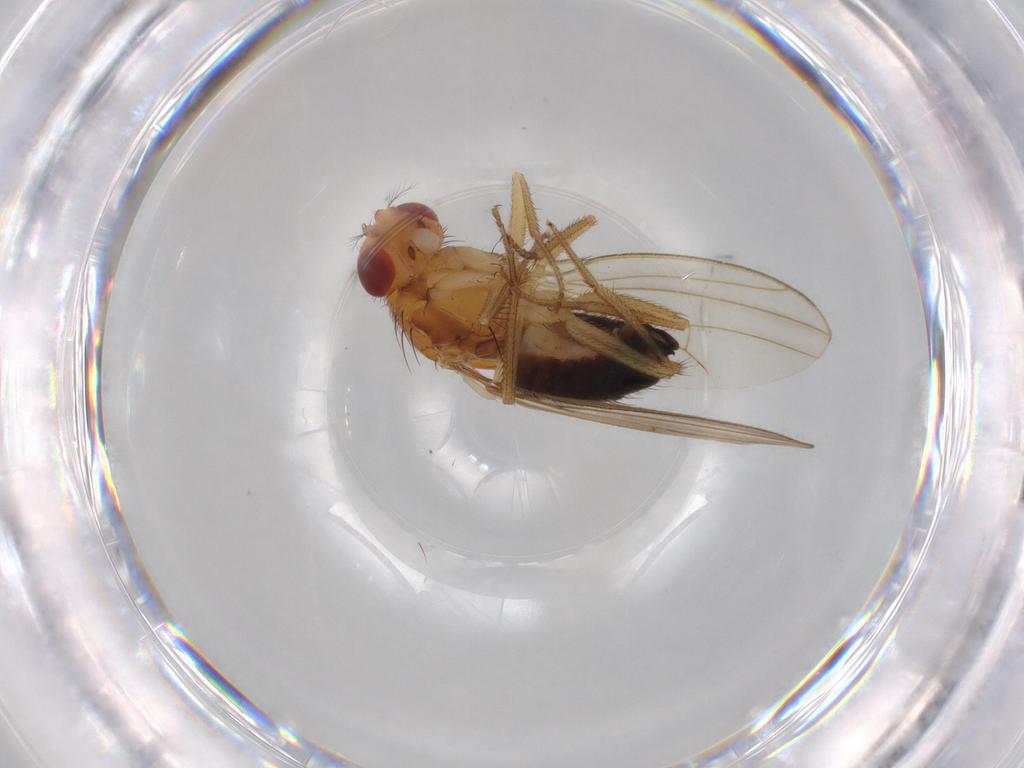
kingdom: Animalia
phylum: Arthropoda
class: Insecta
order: Diptera
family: Drosophilidae
